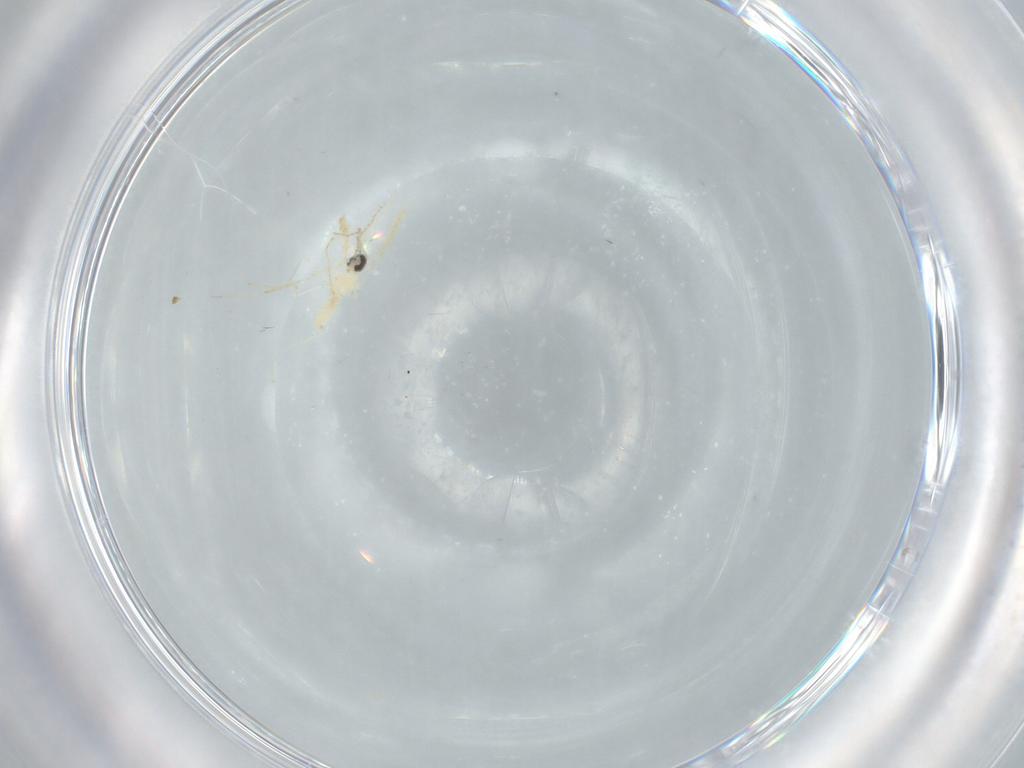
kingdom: Animalia
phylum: Arthropoda
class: Insecta
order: Diptera
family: Cecidomyiidae
